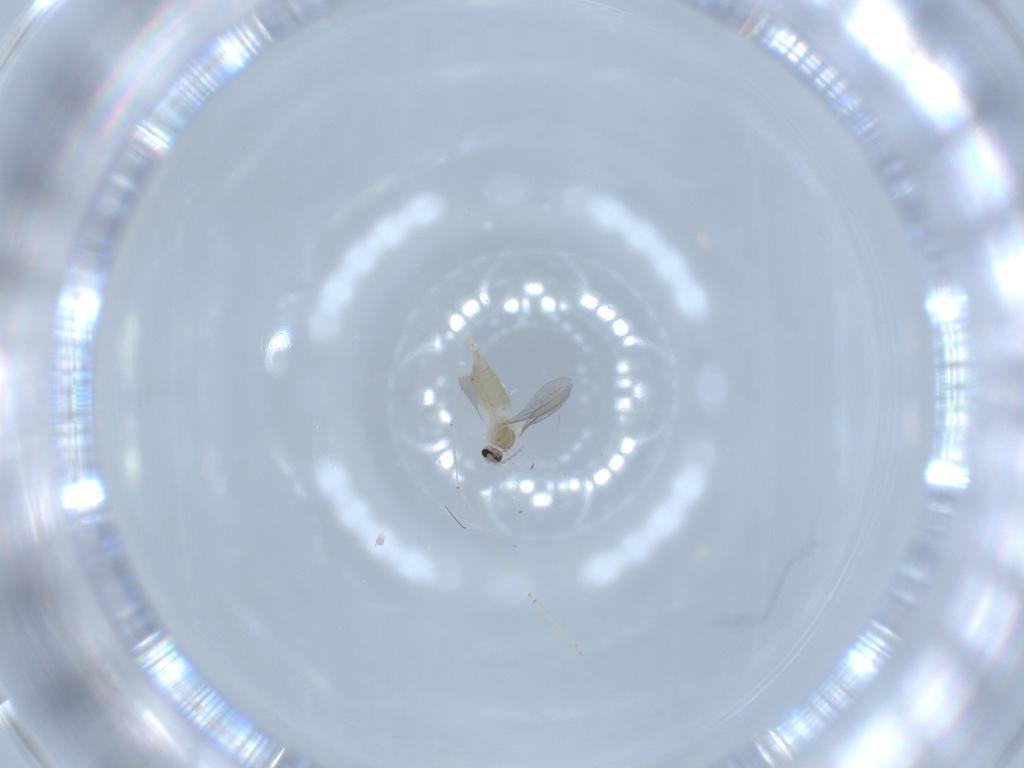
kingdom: Animalia
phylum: Arthropoda
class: Insecta
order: Diptera
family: Cecidomyiidae
